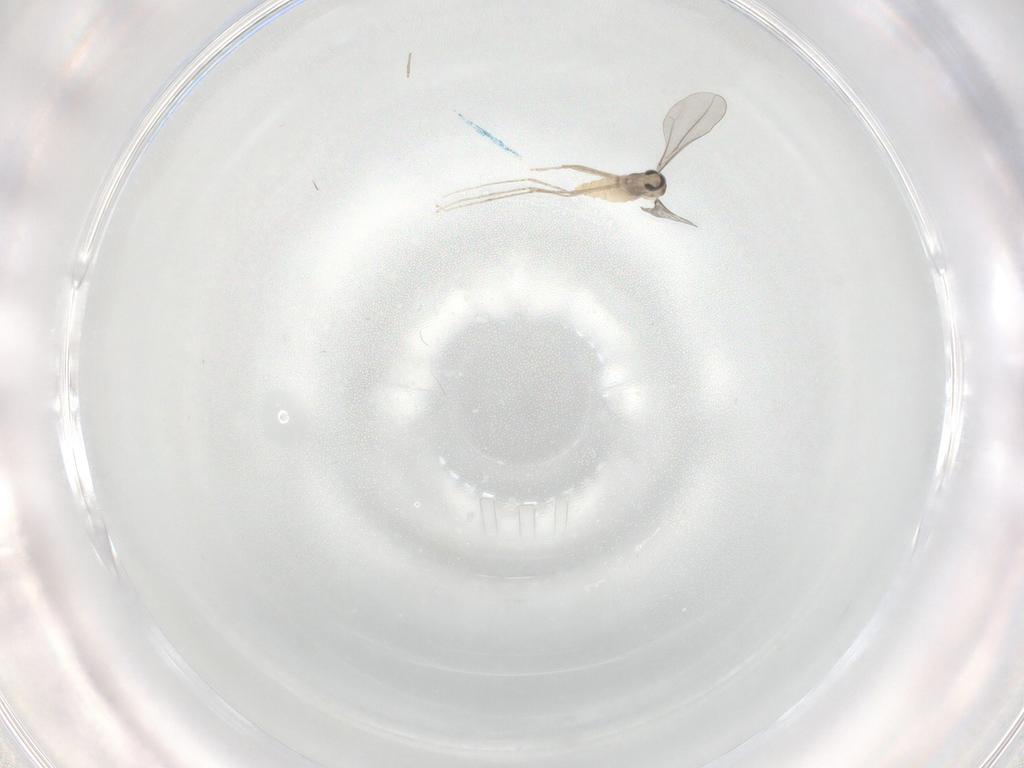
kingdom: Animalia
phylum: Arthropoda
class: Insecta
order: Diptera
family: Cecidomyiidae
